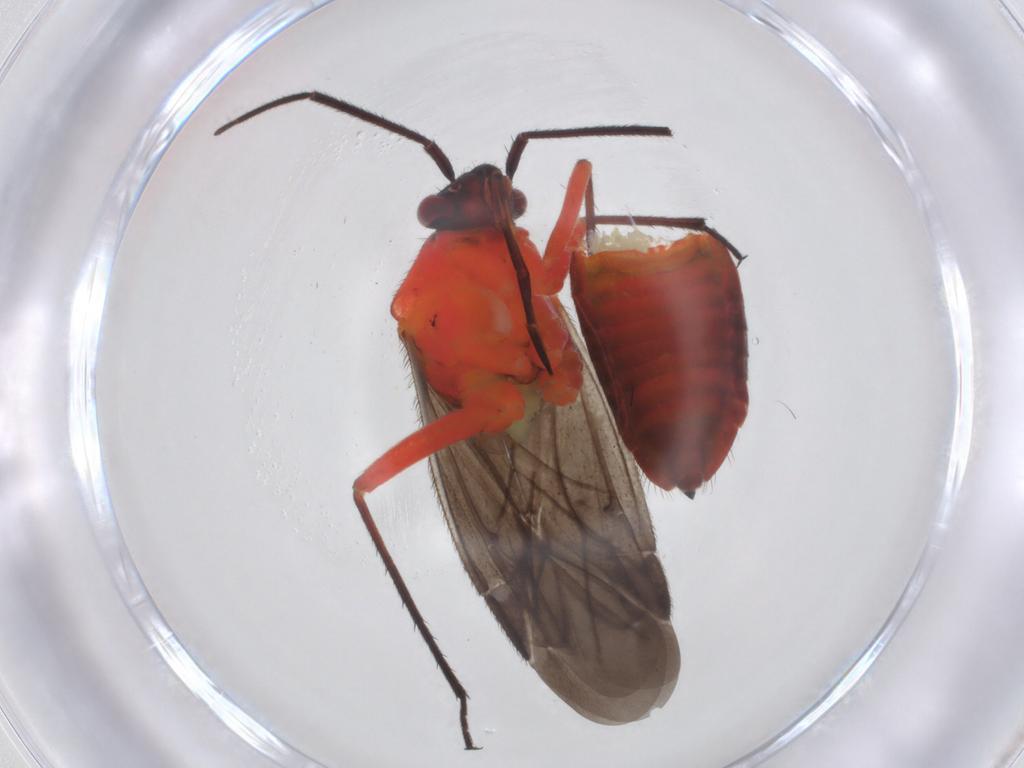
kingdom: Animalia
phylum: Arthropoda
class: Insecta
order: Hemiptera
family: Miridae
